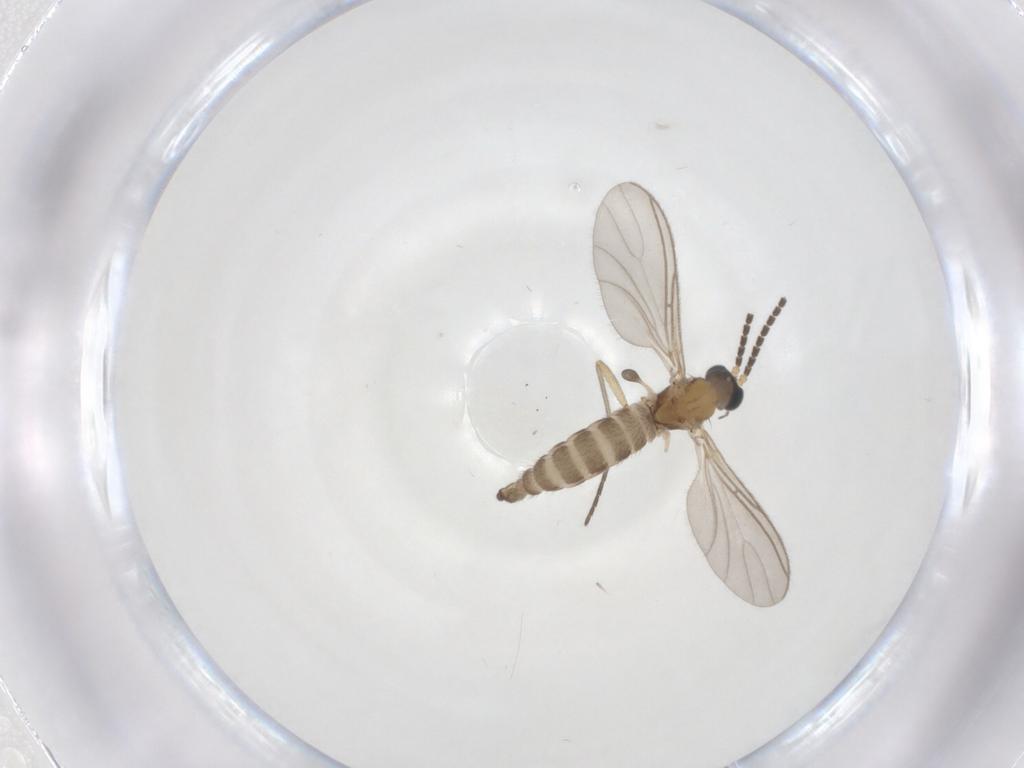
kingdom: Animalia
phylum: Arthropoda
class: Insecta
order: Diptera
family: Sciaridae
